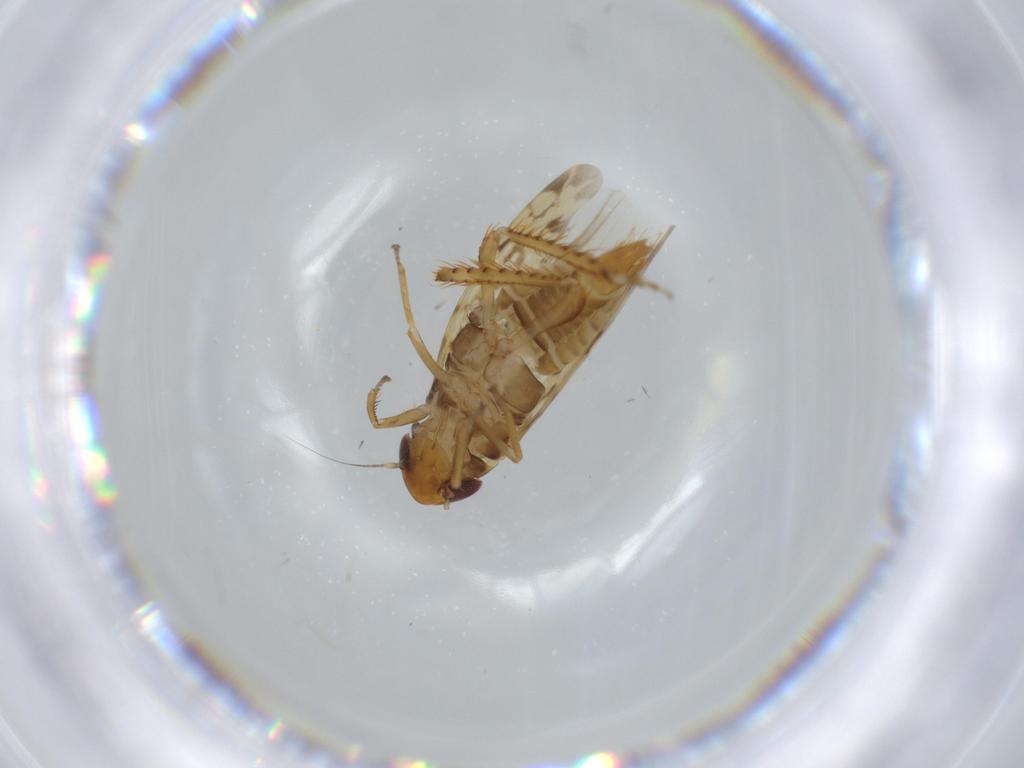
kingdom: Animalia
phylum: Arthropoda
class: Insecta
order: Hemiptera
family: Cicadellidae
